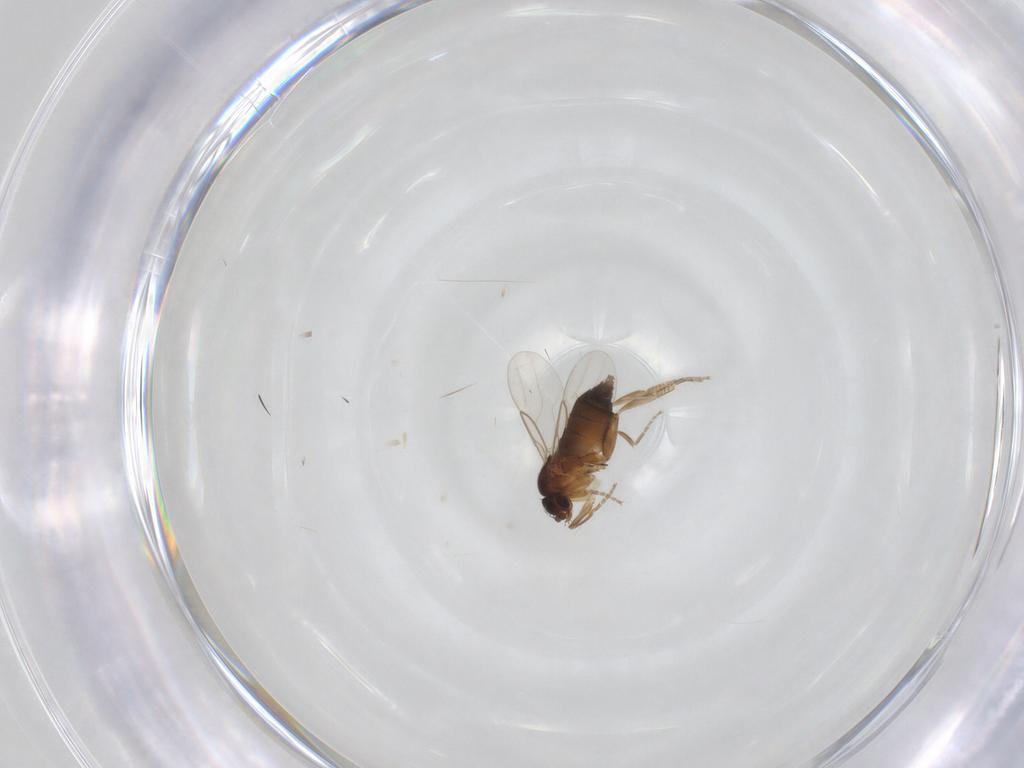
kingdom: Animalia
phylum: Arthropoda
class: Insecta
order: Diptera
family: Phoridae
